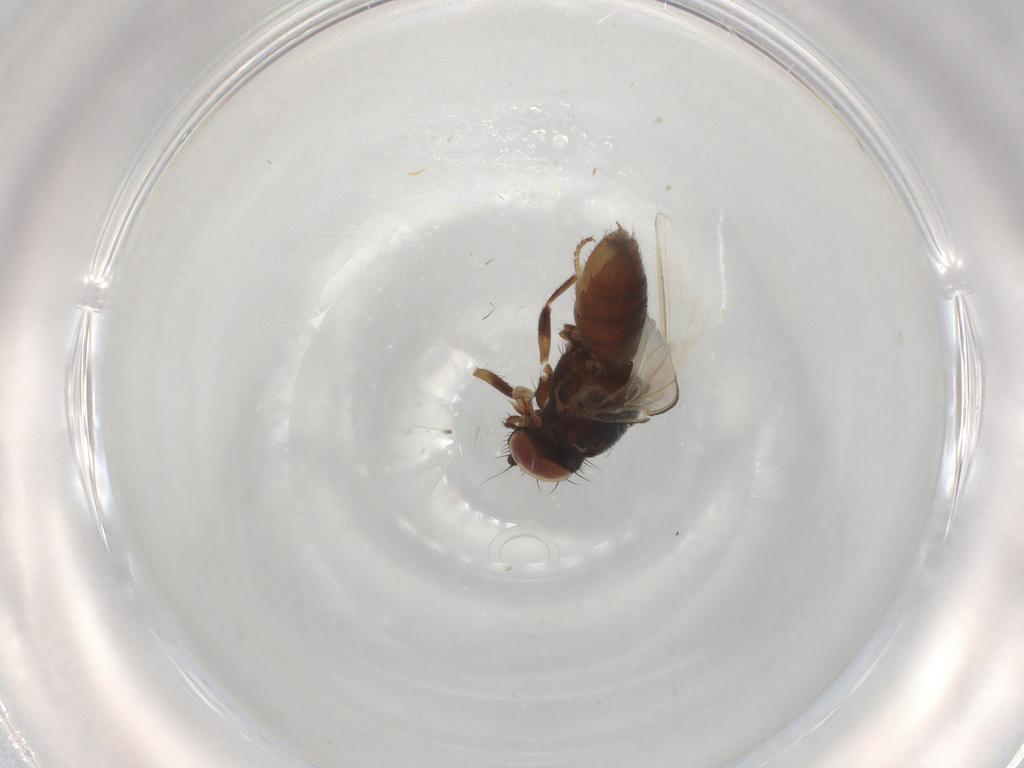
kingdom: Animalia
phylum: Arthropoda
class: Insecta
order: Diptera
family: Milichiidae
